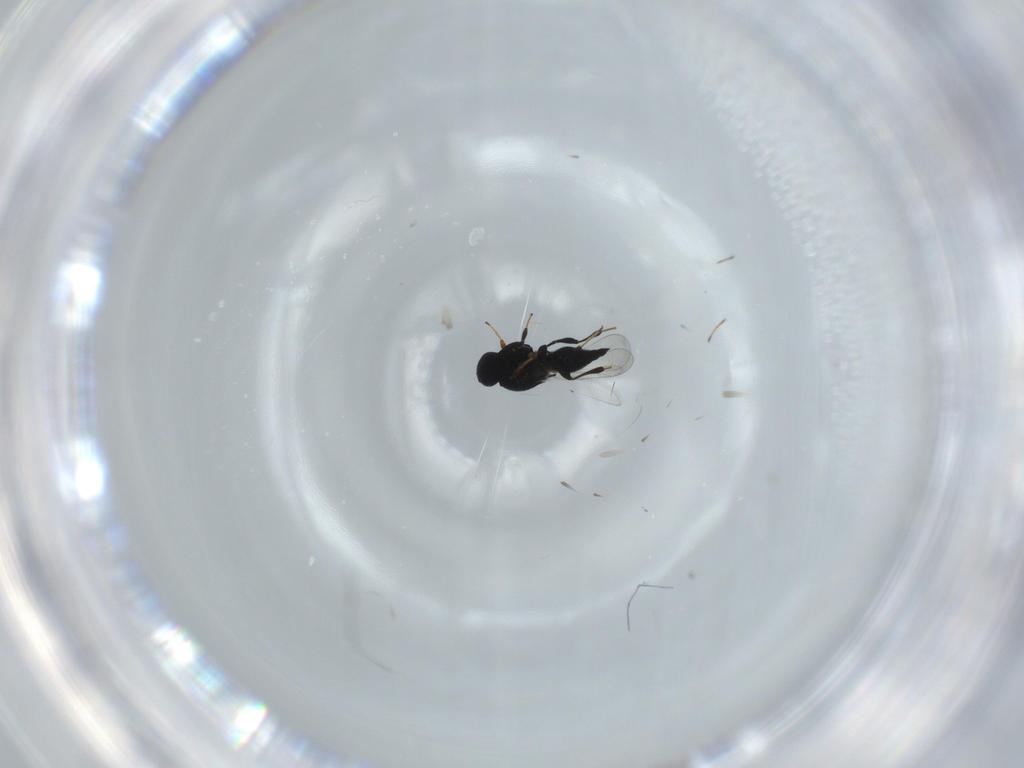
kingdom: Animalia
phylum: Arthropoda
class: Insecta
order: Hymenoptera
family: Platygastridae
